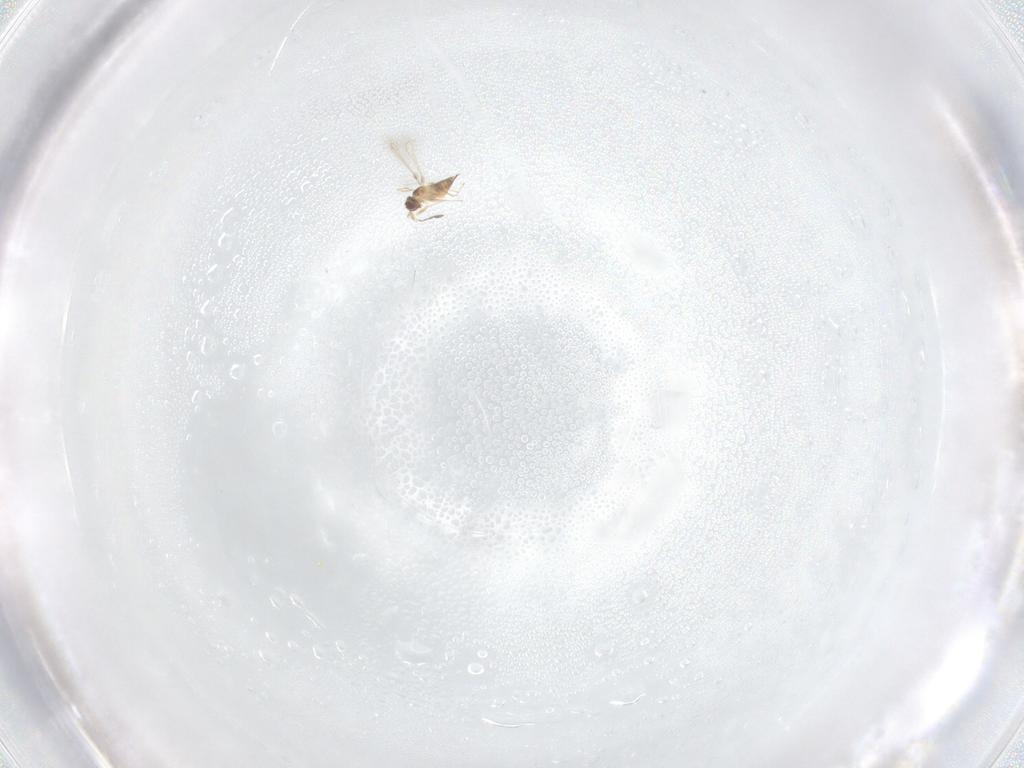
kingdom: Animalia
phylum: Arthropoda
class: Insecta
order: Hymenoptera
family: Mymaridae
